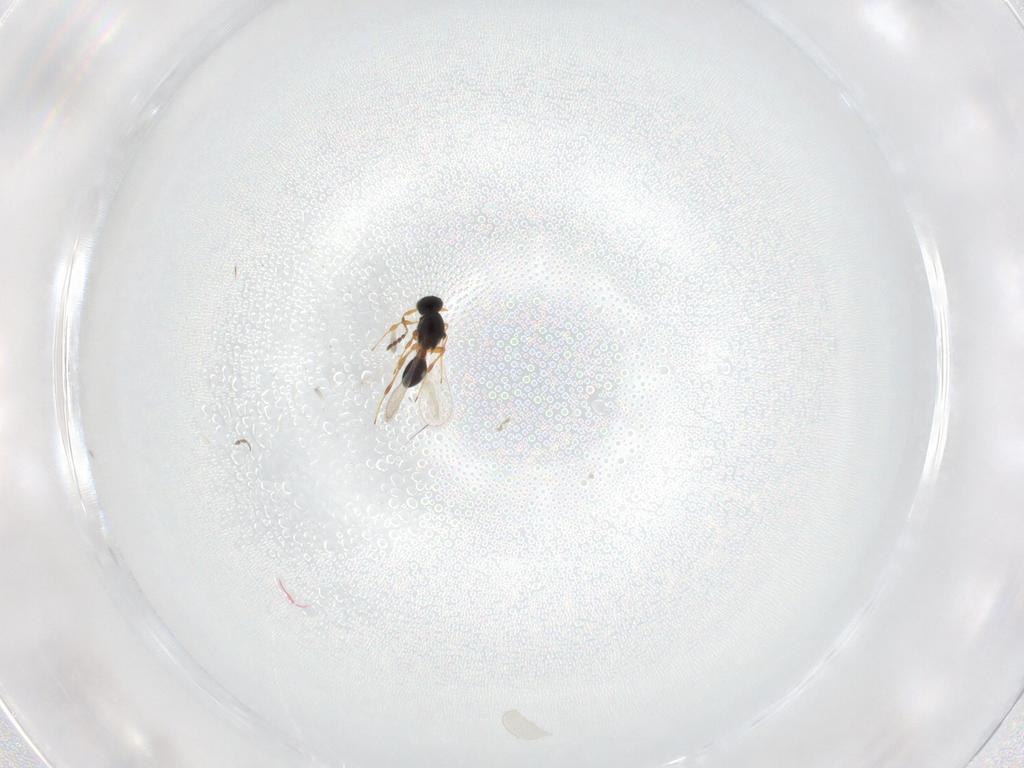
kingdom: Animalia
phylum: Arthropoda
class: Insecta
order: Hymenoptera
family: Platygastridae
